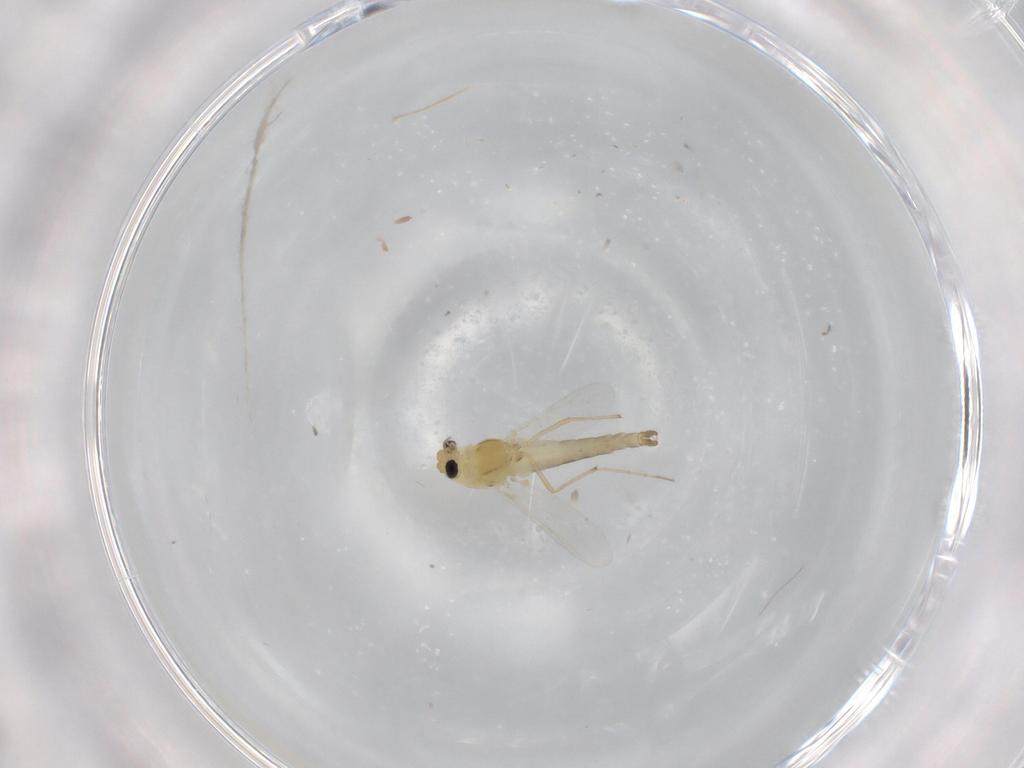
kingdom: Animalia
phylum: Arthropoda
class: Insecta
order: Diptera
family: Chironomidae
